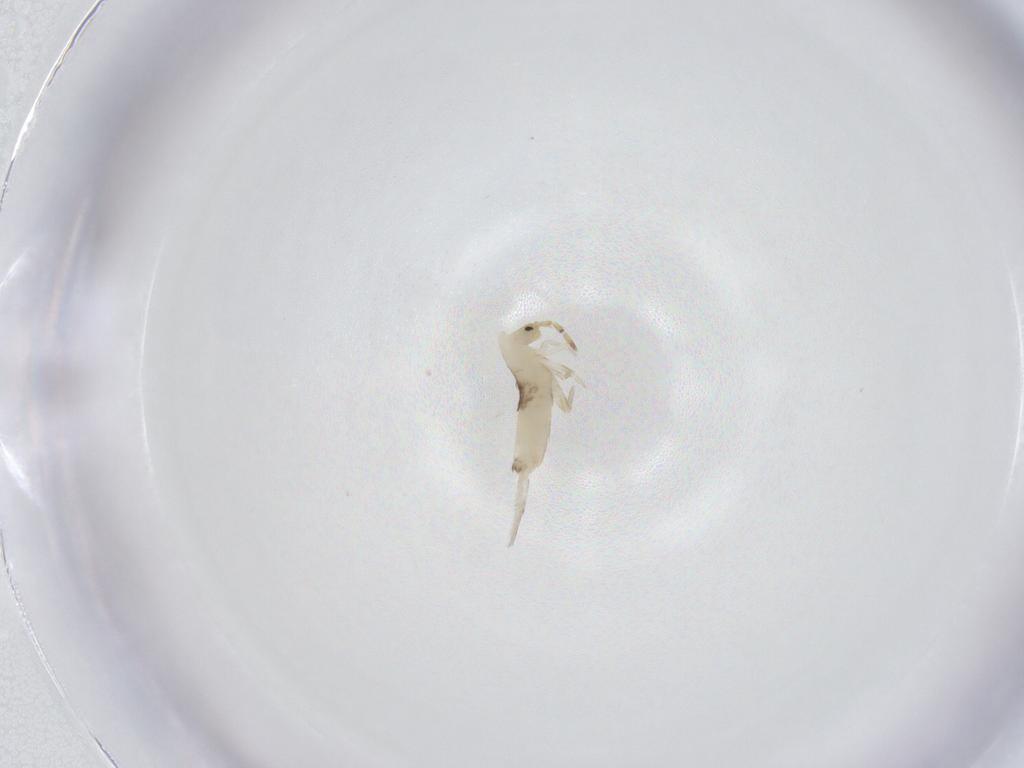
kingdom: Animalia
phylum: Arthropoda
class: Collembola
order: Entomobryomorpha
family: Entomobryidae
